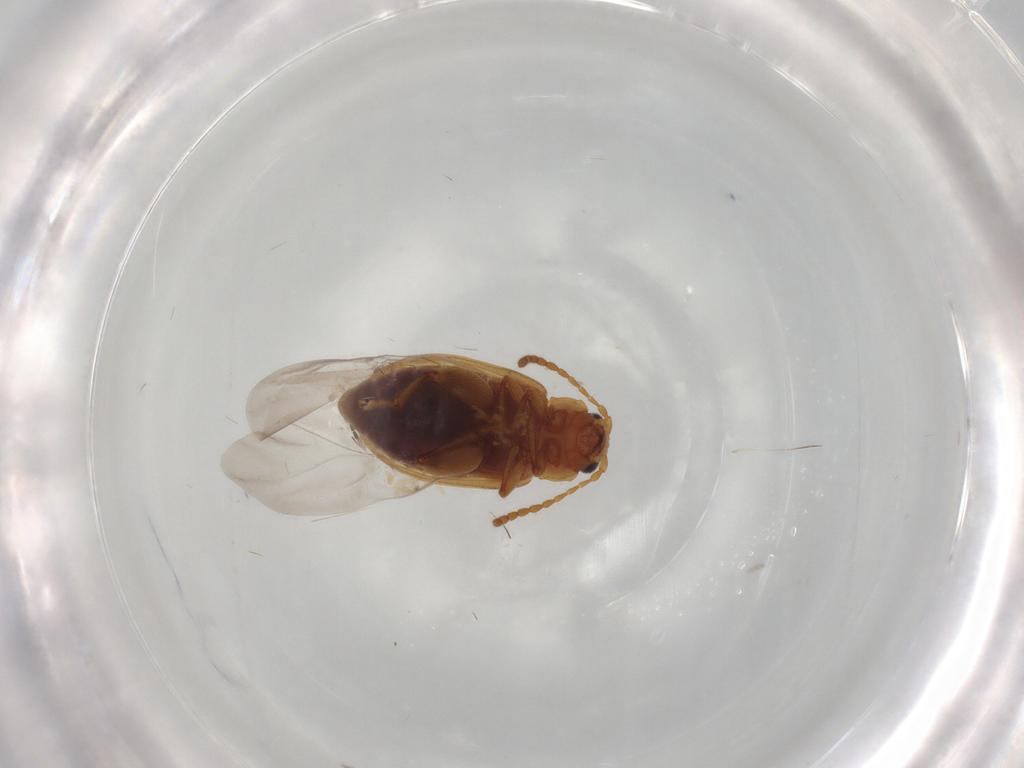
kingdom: Animalia
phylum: Arthropoda
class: Insecta
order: Coleoptera
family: Chrysomelidae
